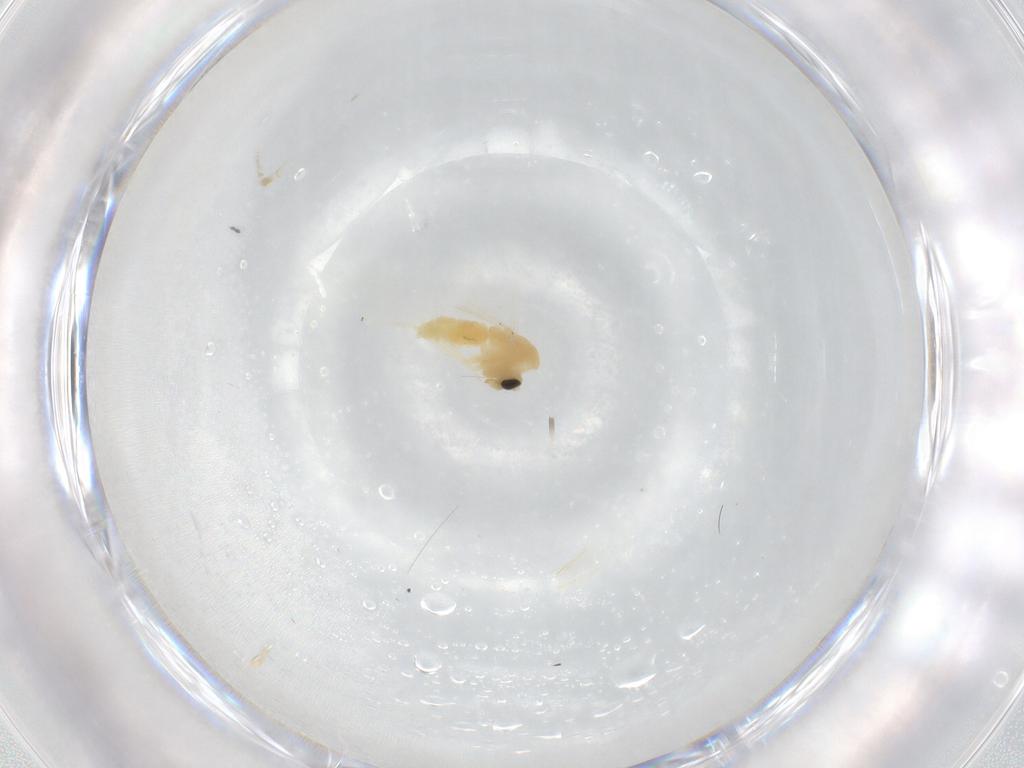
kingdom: Animalia
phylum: Arthropoda
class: Insecta
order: Diptera
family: Chironomidae
